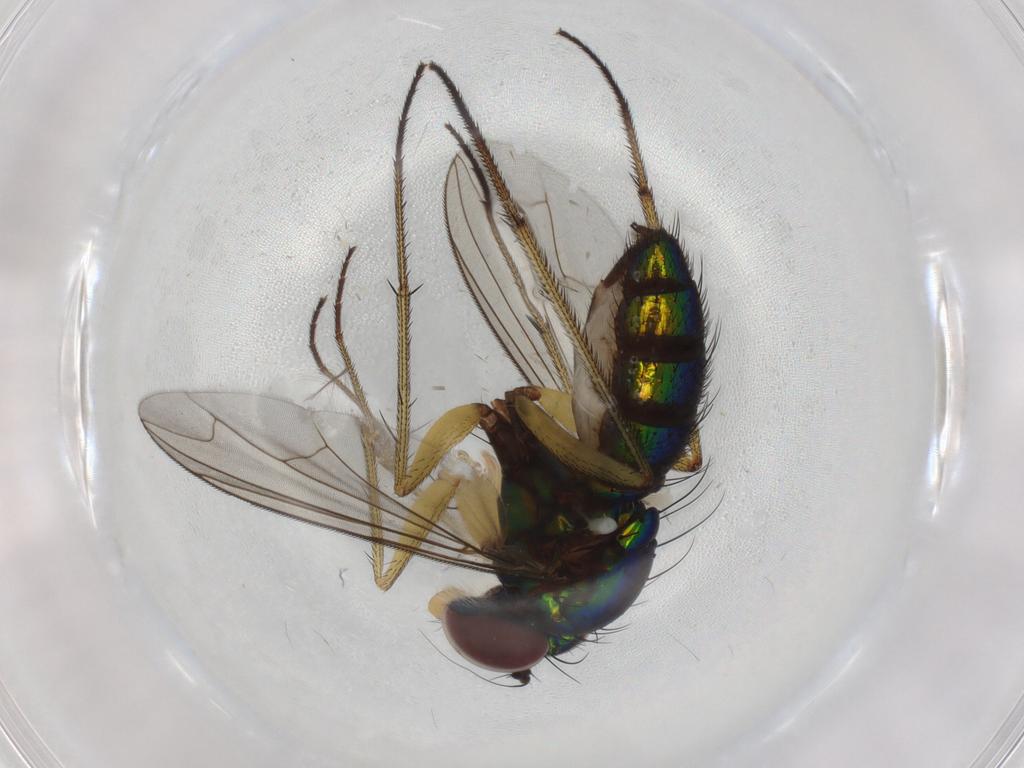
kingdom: Animalia
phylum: Arthropoda
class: Insecta
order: Diptera
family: Dolichopodidae
